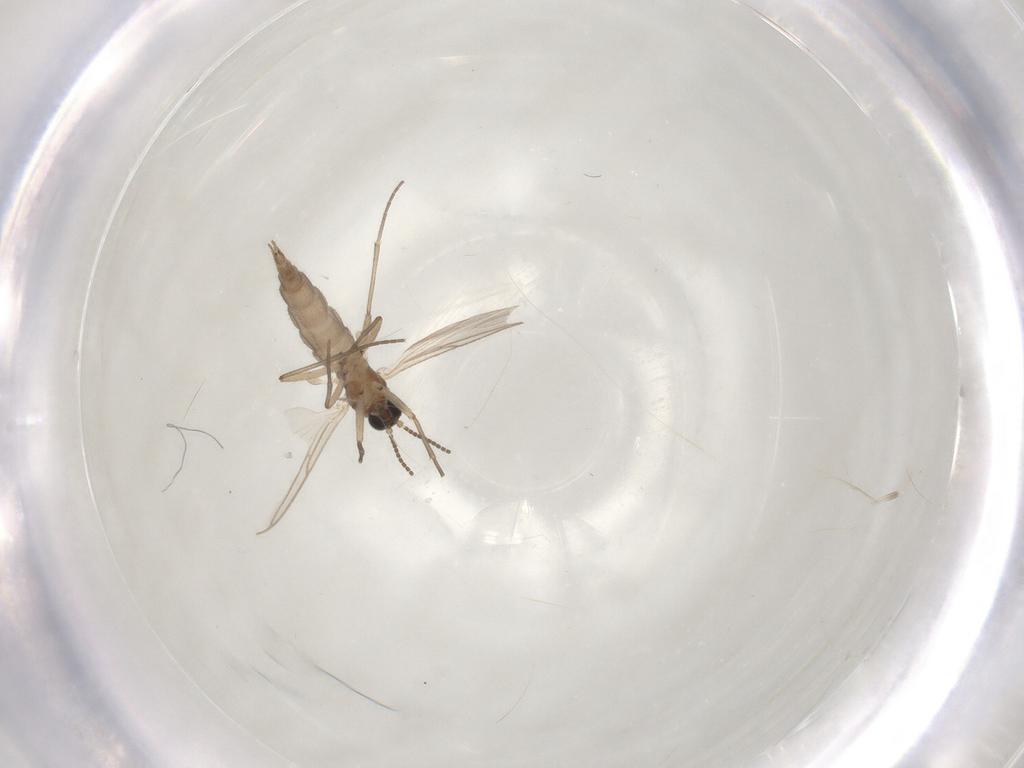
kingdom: Animalia
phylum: Arthropoda
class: Insecta
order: Diptera
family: Sciaridae
